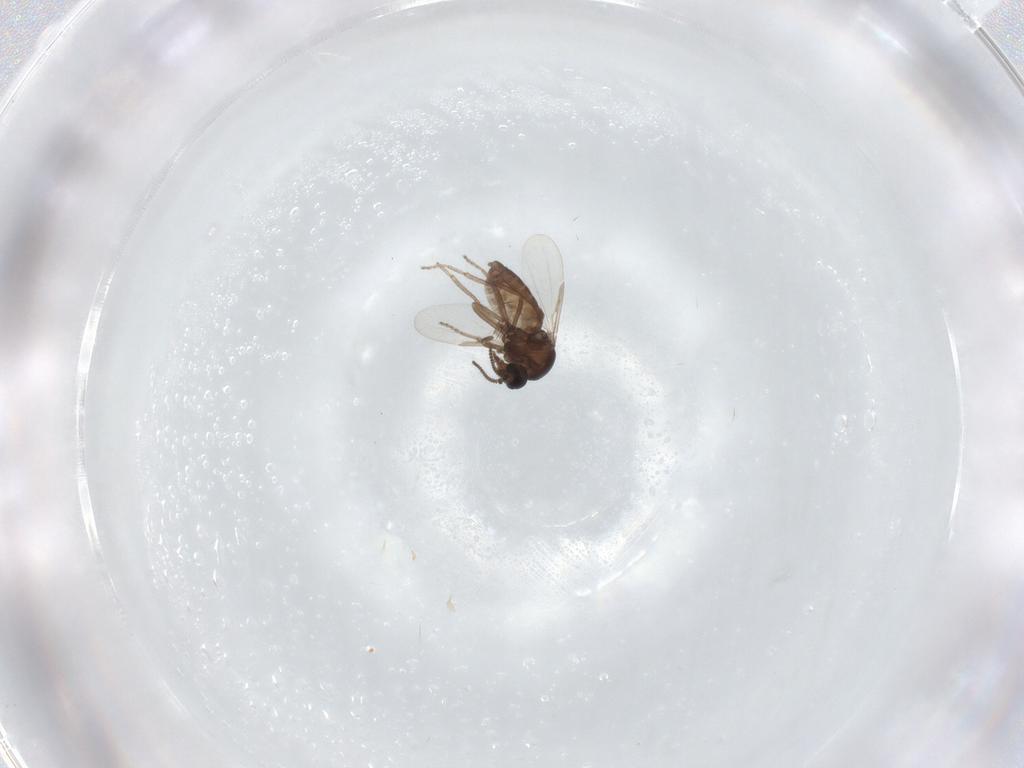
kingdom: Animalia
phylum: Arthropoda
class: Insecta
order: Diptera
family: Ceratopogonidae
